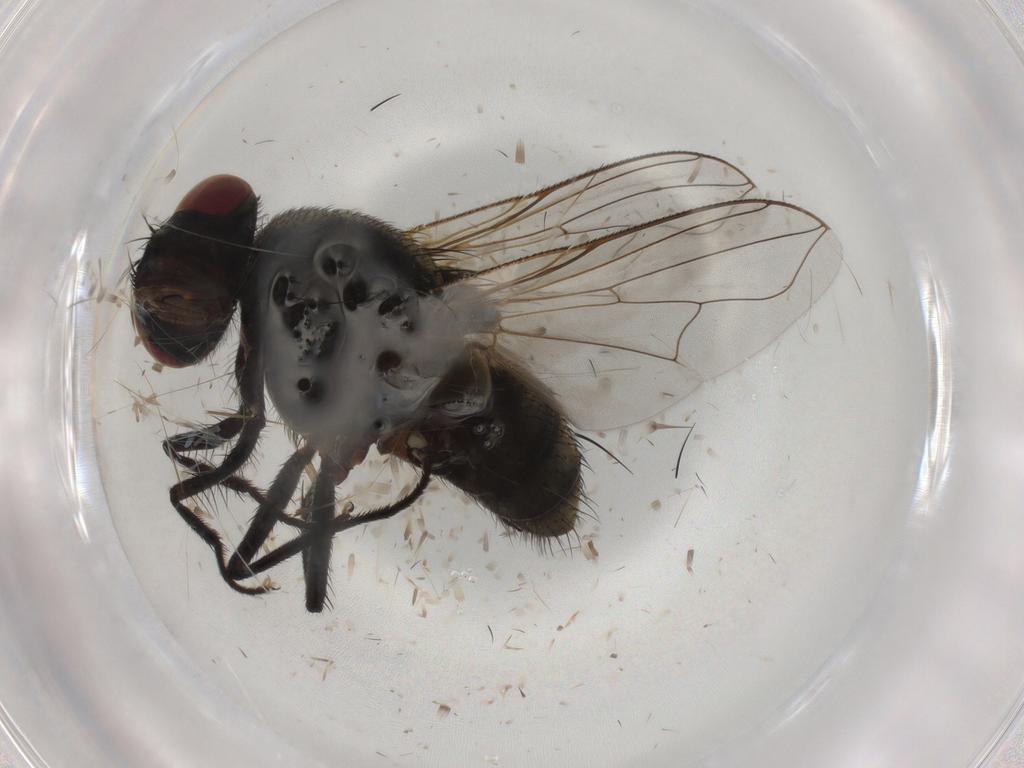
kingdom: Animalia
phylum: Arthropoda
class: Insecta
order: Diptera
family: Muscidae
